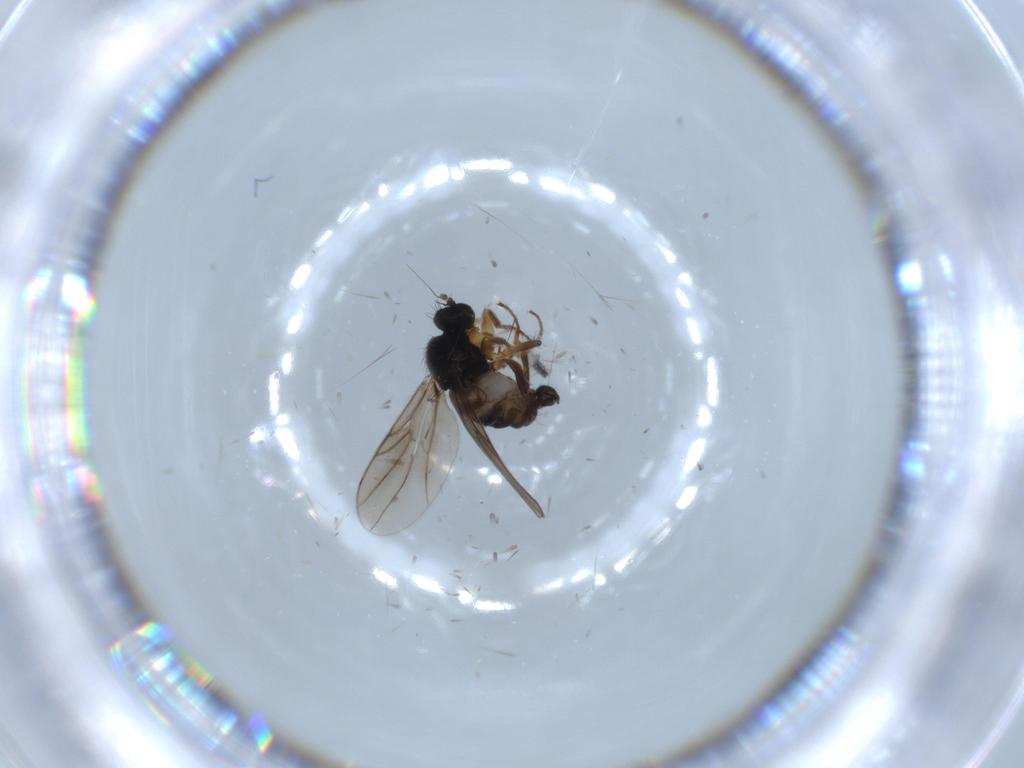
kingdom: Animalia
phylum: Arthropoda
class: Insecta
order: Diptera
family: Hybotidae
